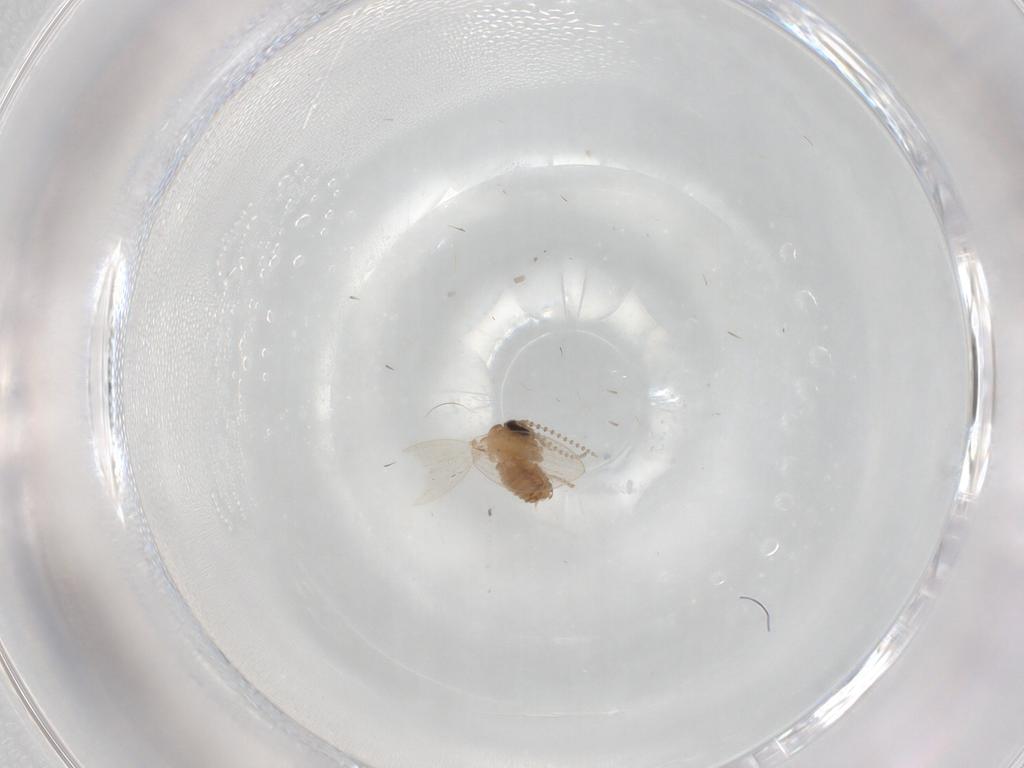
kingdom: Animalia
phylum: Arthropoda
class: Insecta
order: Diptera
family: Psychodidae
